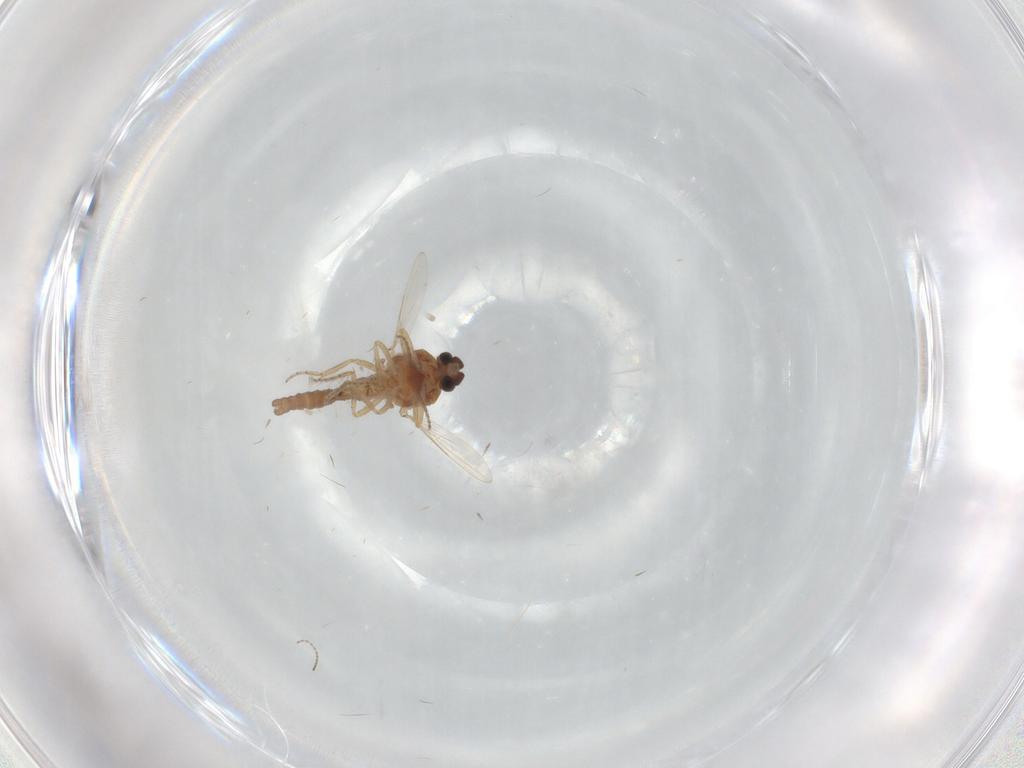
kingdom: Animalia
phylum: Arthropoda
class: Insecta
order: Diptera
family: Ceratopogonidae
